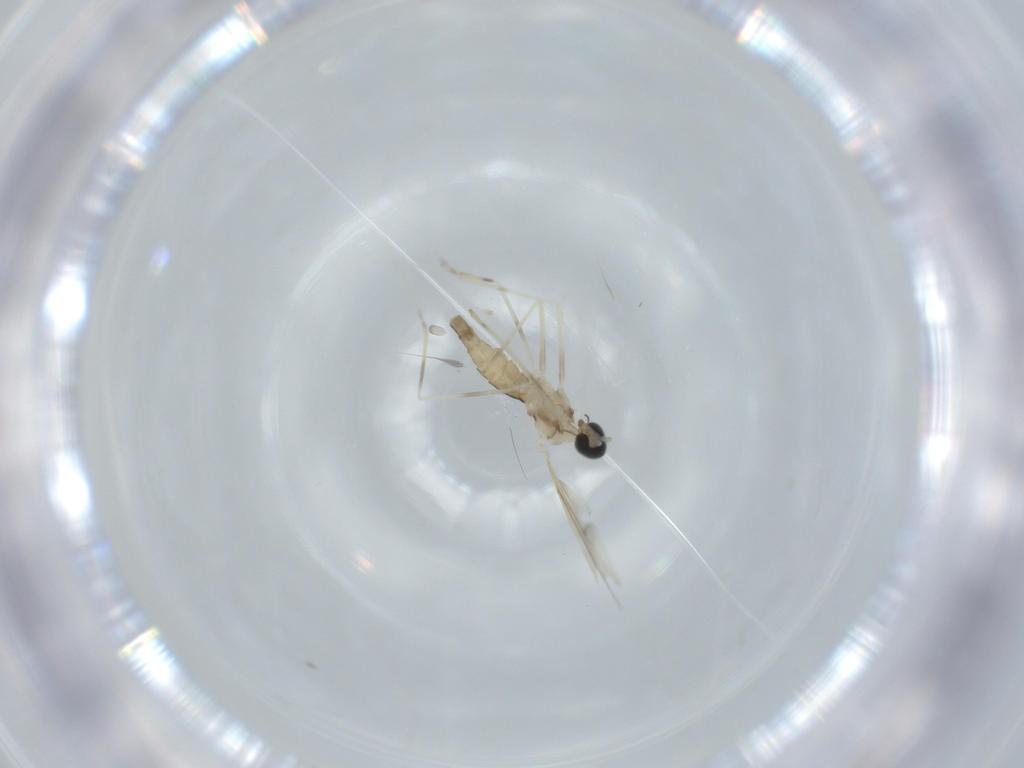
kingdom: Animalia
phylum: Arthropoda
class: Insecta
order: Diptera
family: Cecidomyiidae
